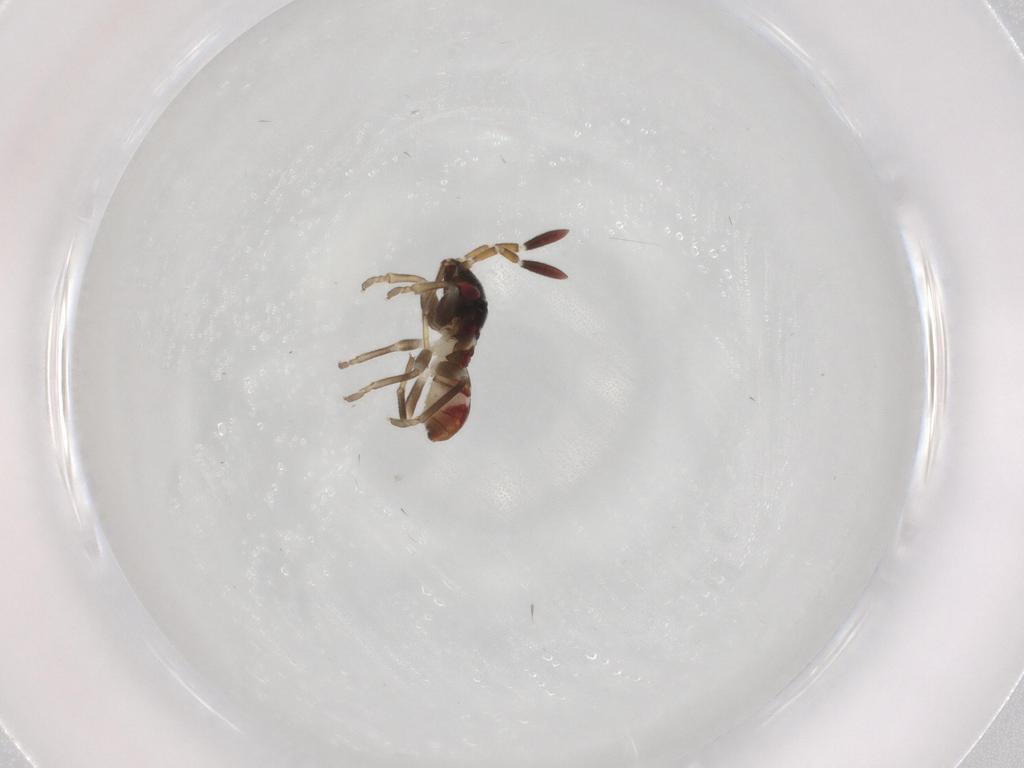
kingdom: Animalia
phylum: Arthropoda
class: Insecta
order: Hemiptera
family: Rhyparochromidae
